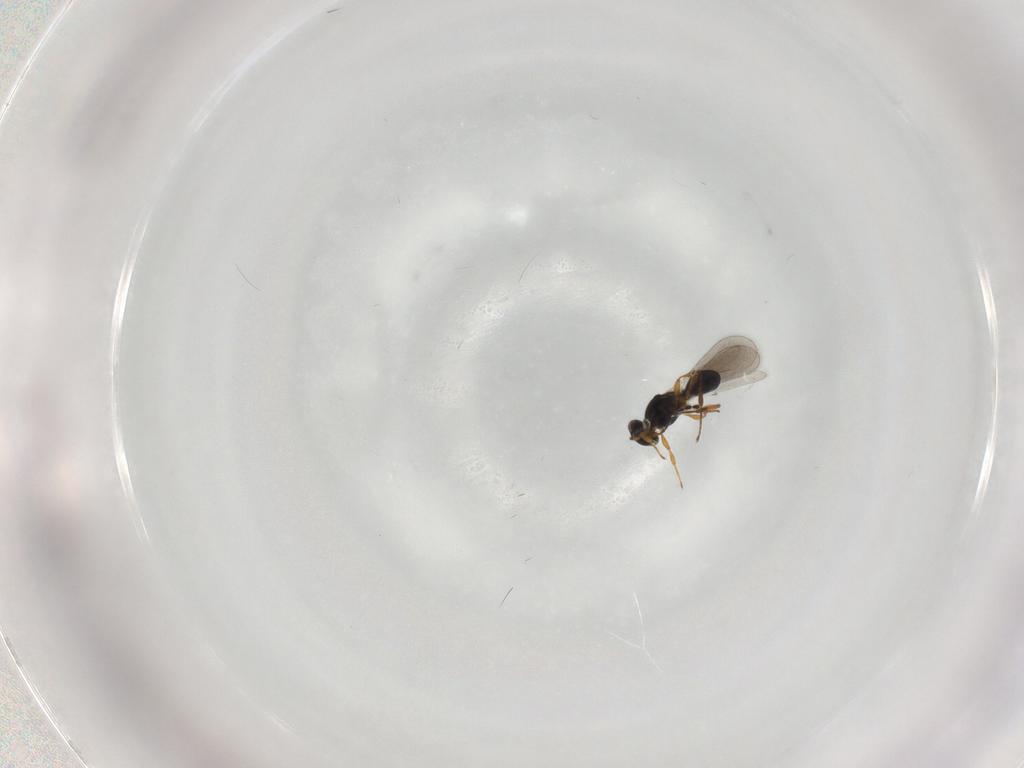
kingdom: Animalia
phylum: Arthropoda
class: Insecta
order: Hymenoptera
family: Platygastridae
